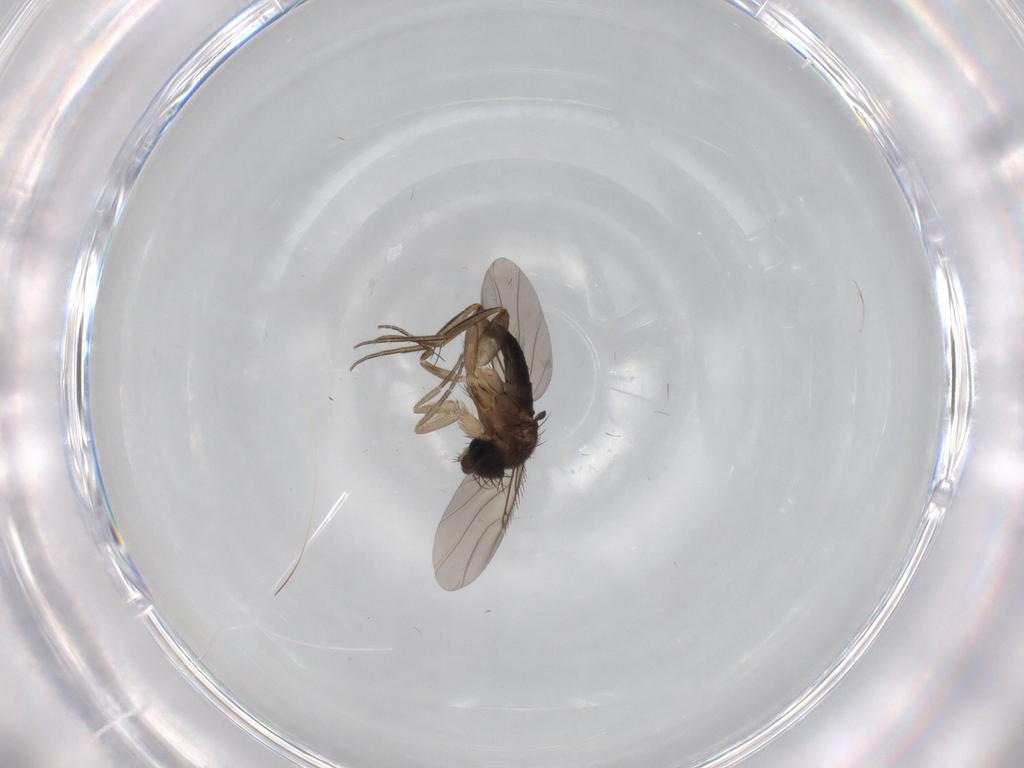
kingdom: Animalia
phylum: Arthropoda
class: Insecta
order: Diptera
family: Phoridae
